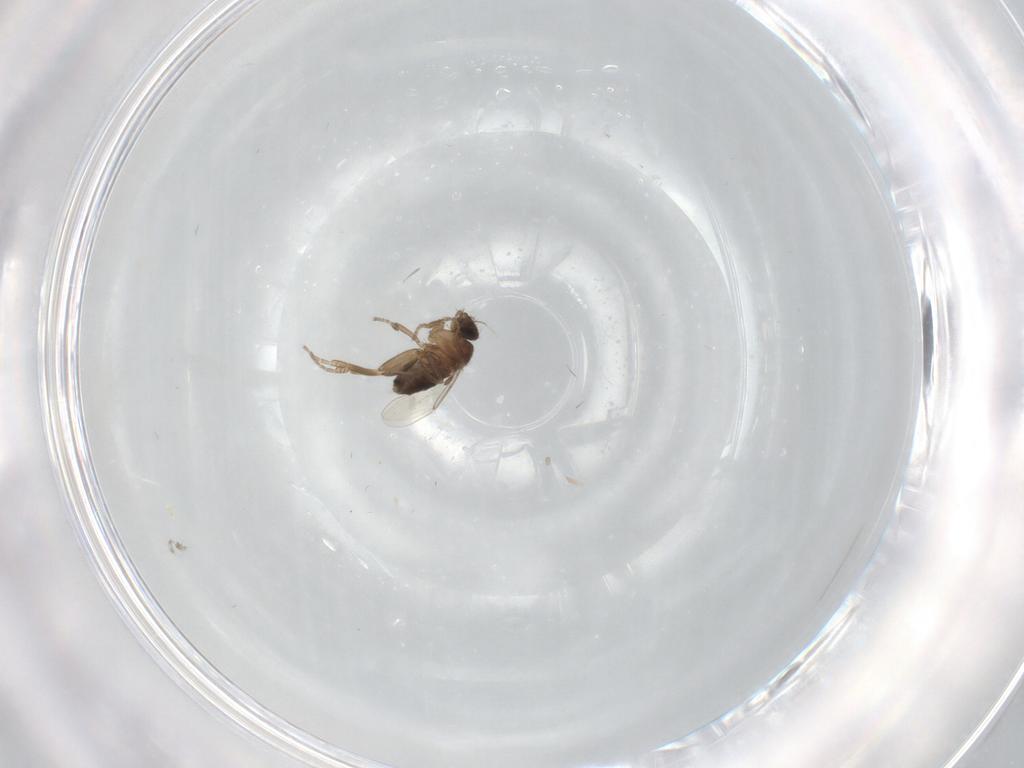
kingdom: Animalia
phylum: Arthropoda
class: Insecta
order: Diptera
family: Phoridae
